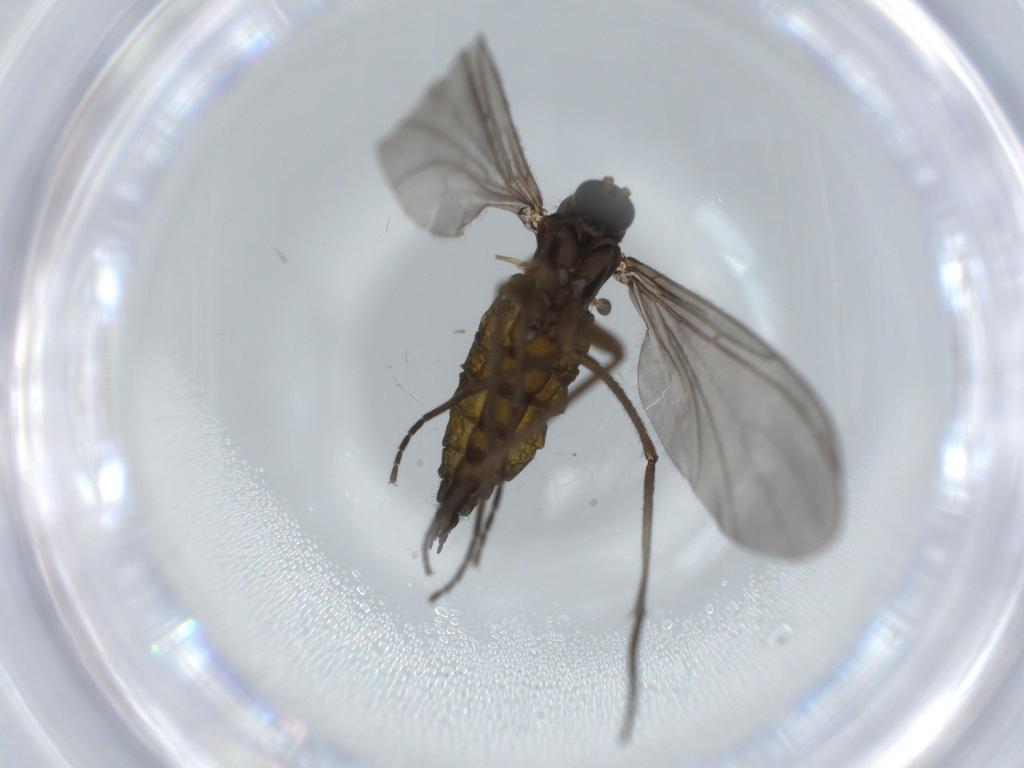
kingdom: Animalia
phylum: Arthropoda
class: Insecta
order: Diptera
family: Sciaridae
